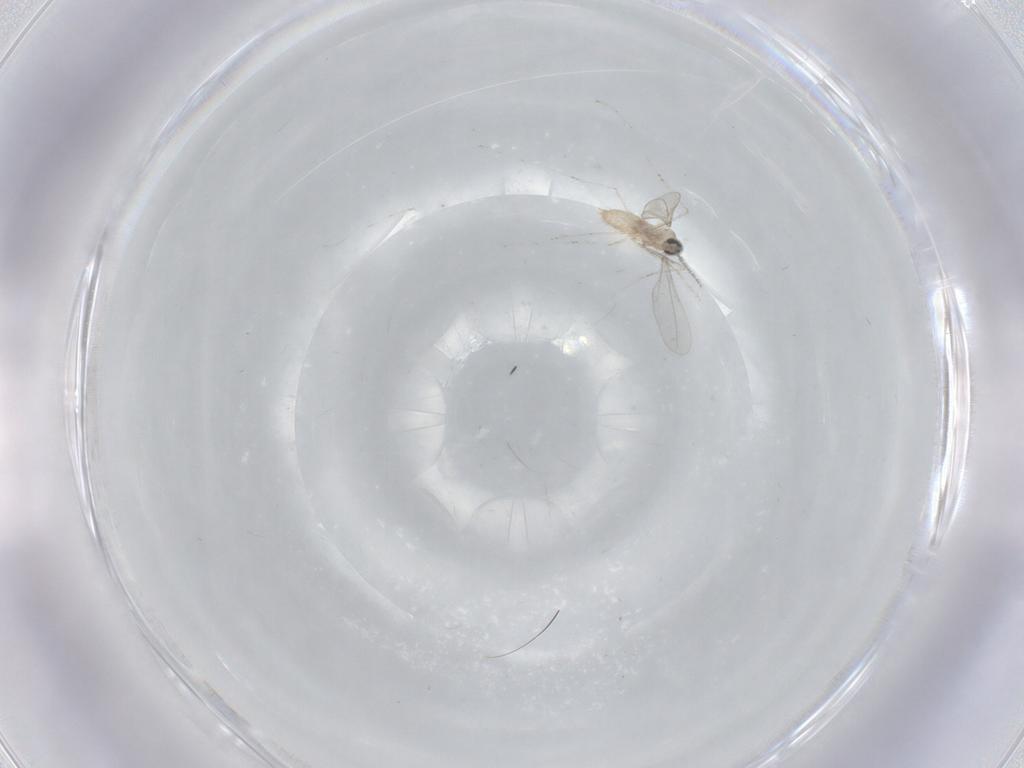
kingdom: Animalia
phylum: Arthropoda
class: Insecta
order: Diptera
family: Cecidomyiidae
